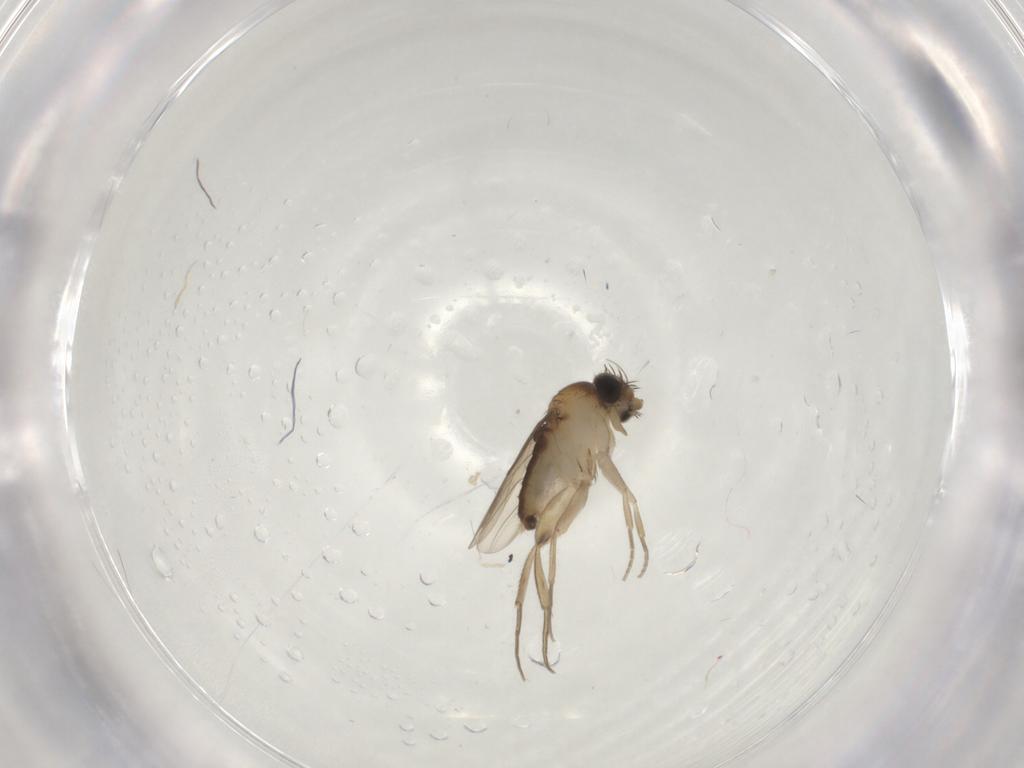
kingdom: Animalia
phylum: Arthropoda
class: Insecta
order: Diptera
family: Phoridae
